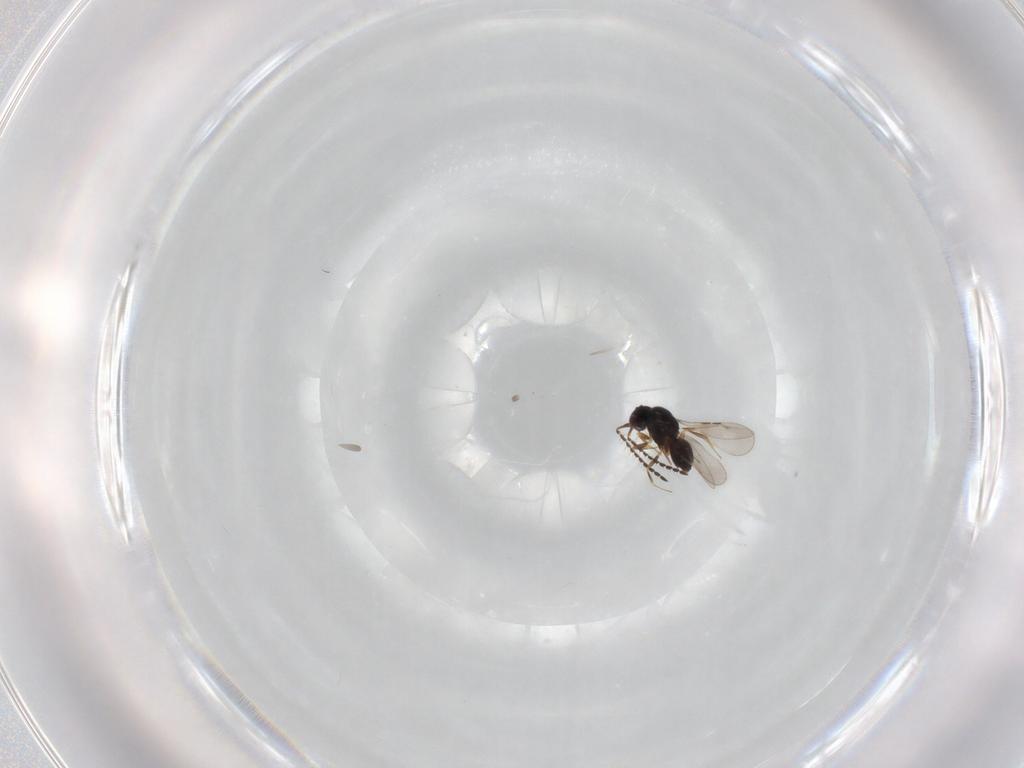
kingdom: Animalia
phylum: Arthropoda
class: Insecta
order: Hymenoptera
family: Ceraphronidae
